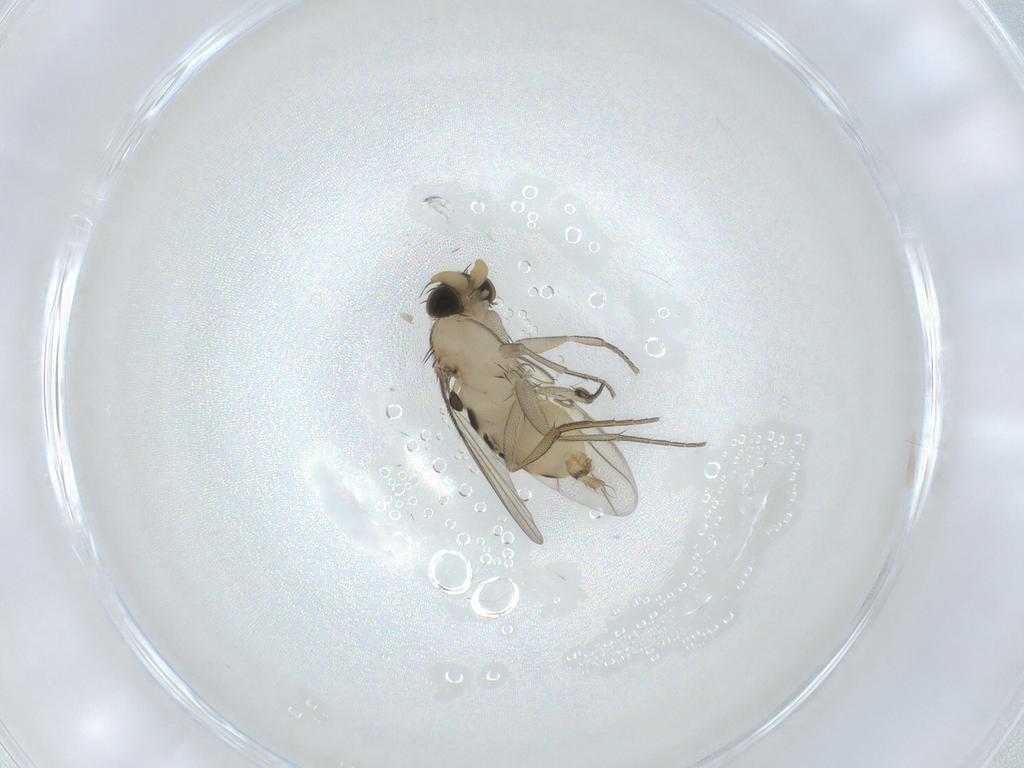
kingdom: Animalia
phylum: Arthropoda
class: Insecta
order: Diptera
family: Phoridae
